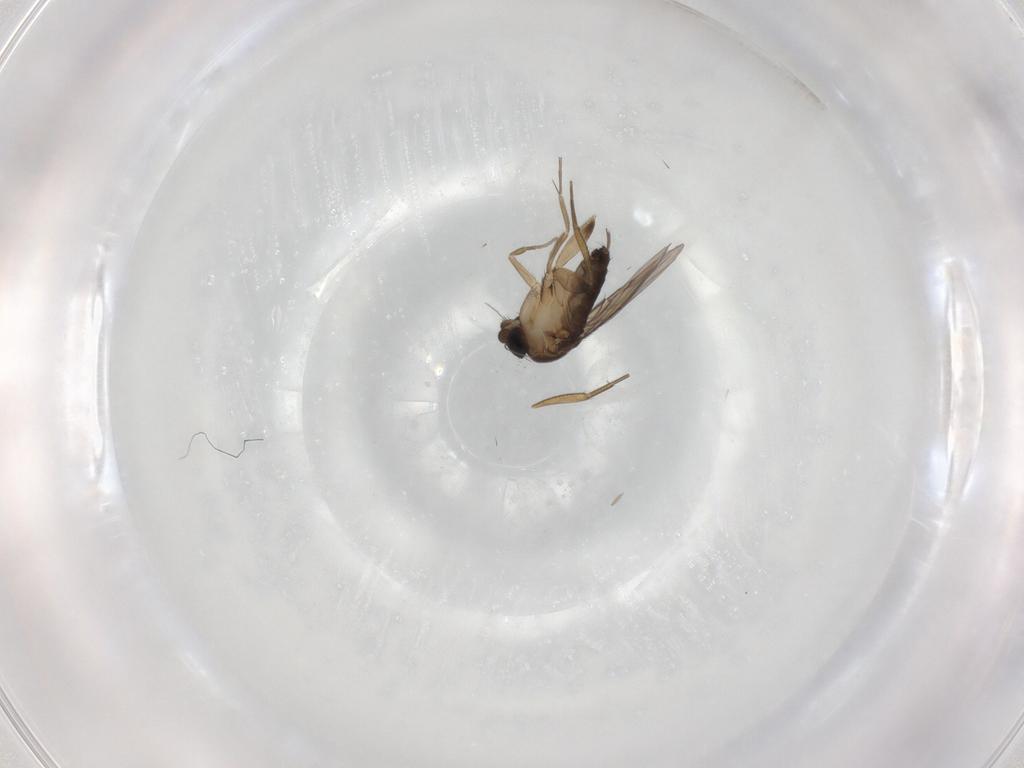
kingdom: Animalia
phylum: Arthropoda
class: Insecta
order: Diptera
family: Phoridae
